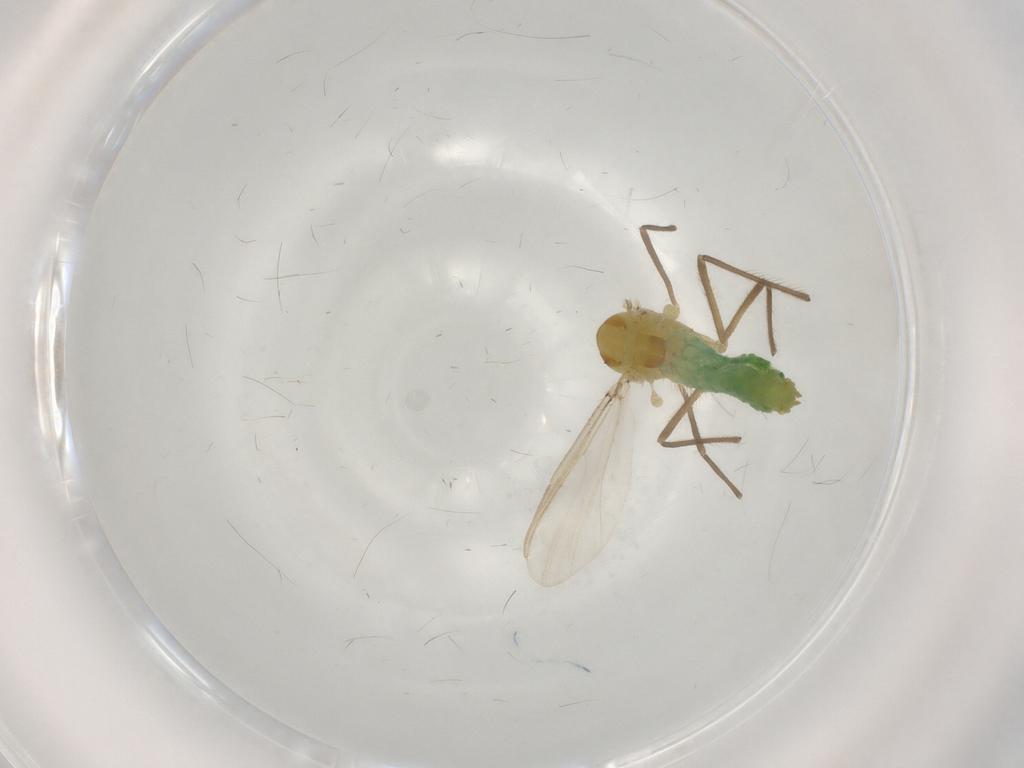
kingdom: Animalia
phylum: Arthropoda
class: Insecta
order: Diptera
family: Chironomidae
